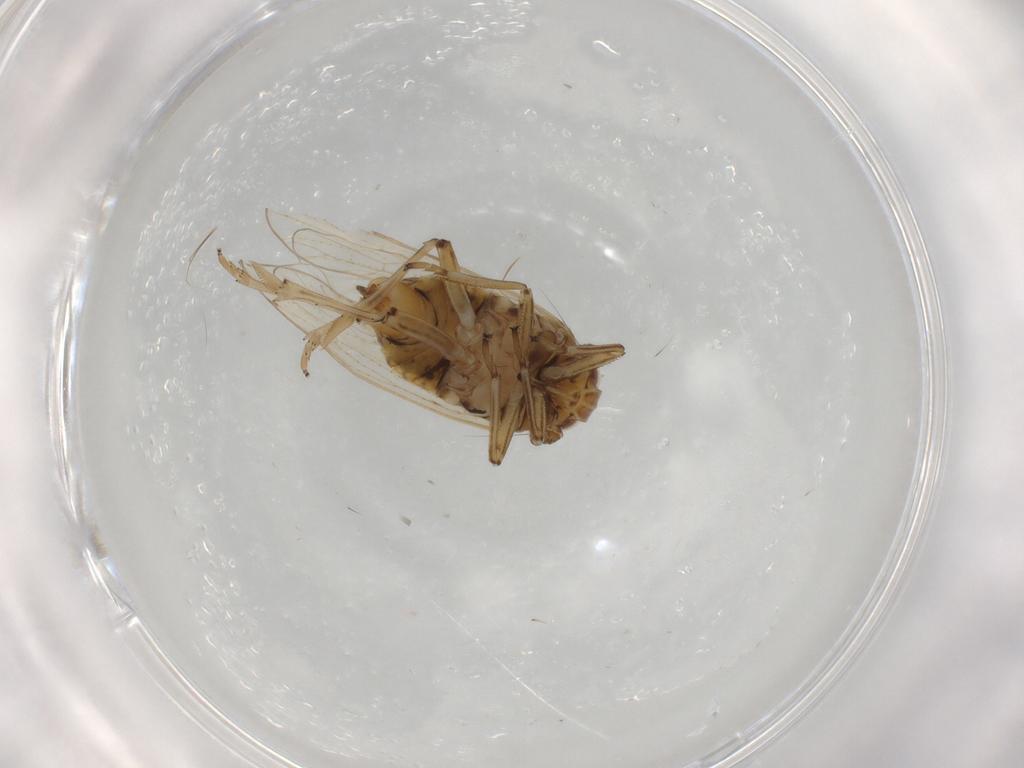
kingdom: Animalia
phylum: Arthropoda
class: Insecta
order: Hemiptera
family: Delphacidae
